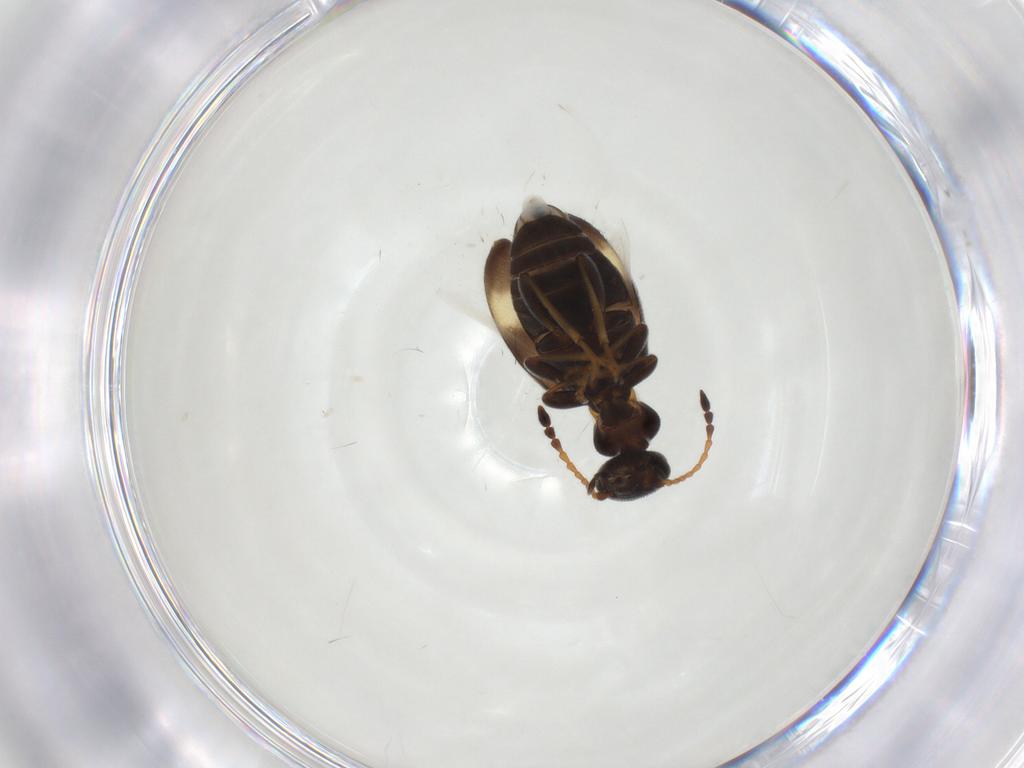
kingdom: Animalia
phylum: Arthropoda
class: Insecta
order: Coleoptera
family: Anthicidae
